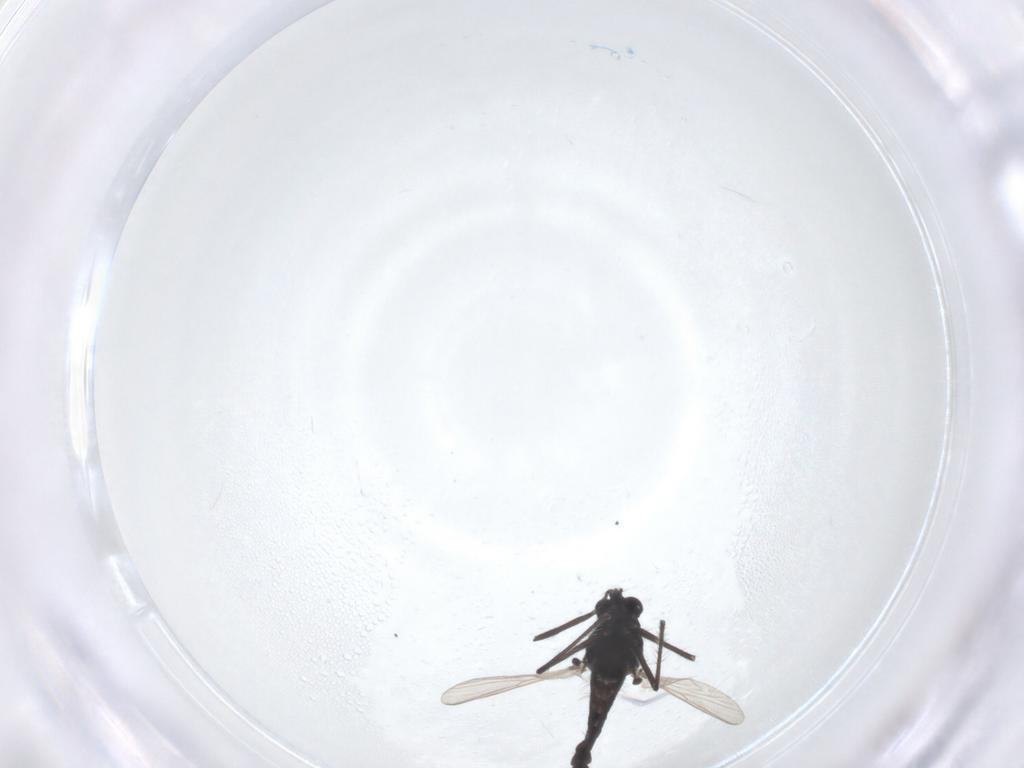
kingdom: Animalia
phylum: Arthropoda
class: Insecta
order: Diptera
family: Chironomidae
